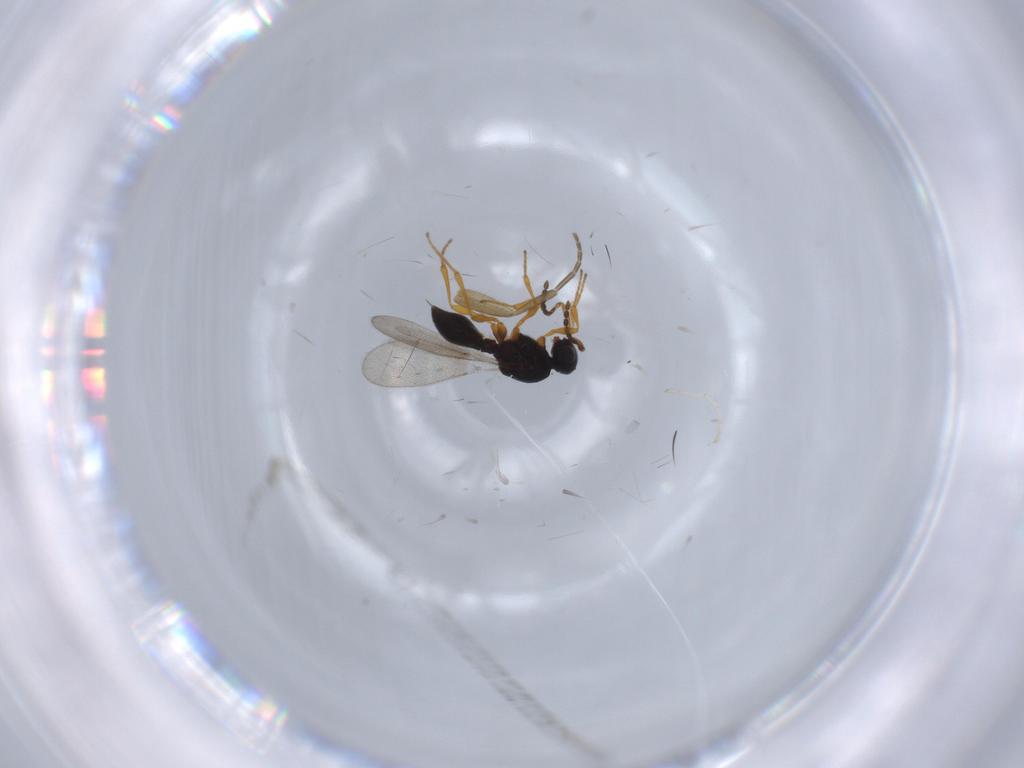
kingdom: Animalia
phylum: Arthropoda
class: Insecta
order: Diptera
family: Mythicomyiidae
